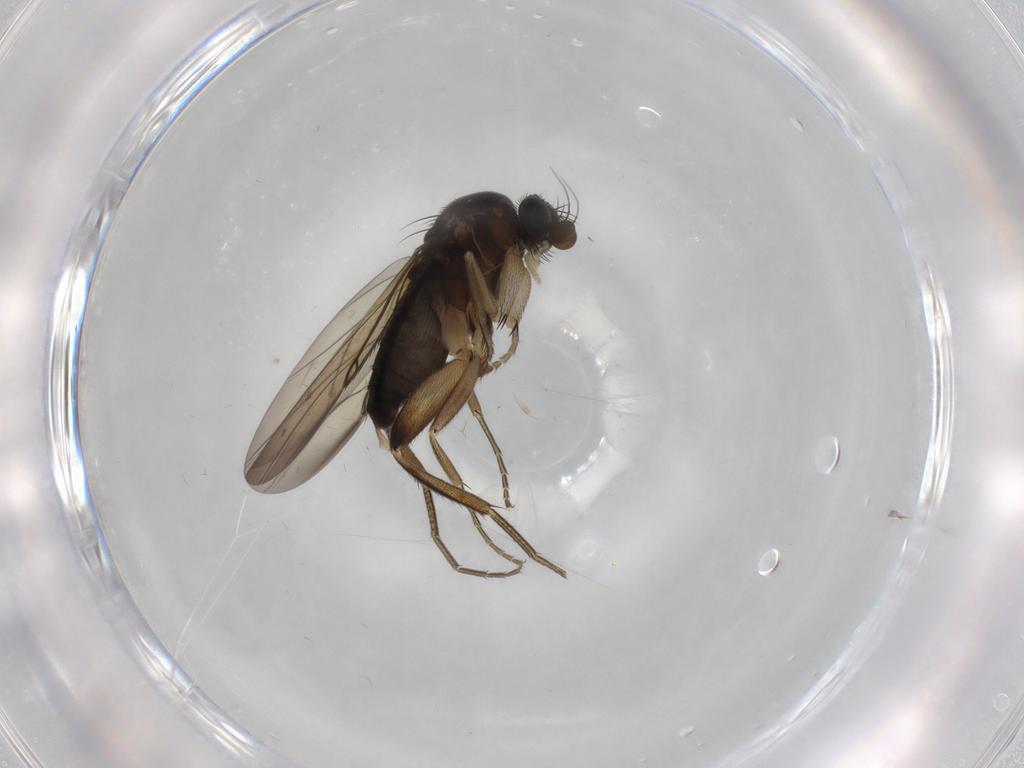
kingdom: Animalia
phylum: Arthropoda
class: Insecta
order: Diptera
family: Phoridae
